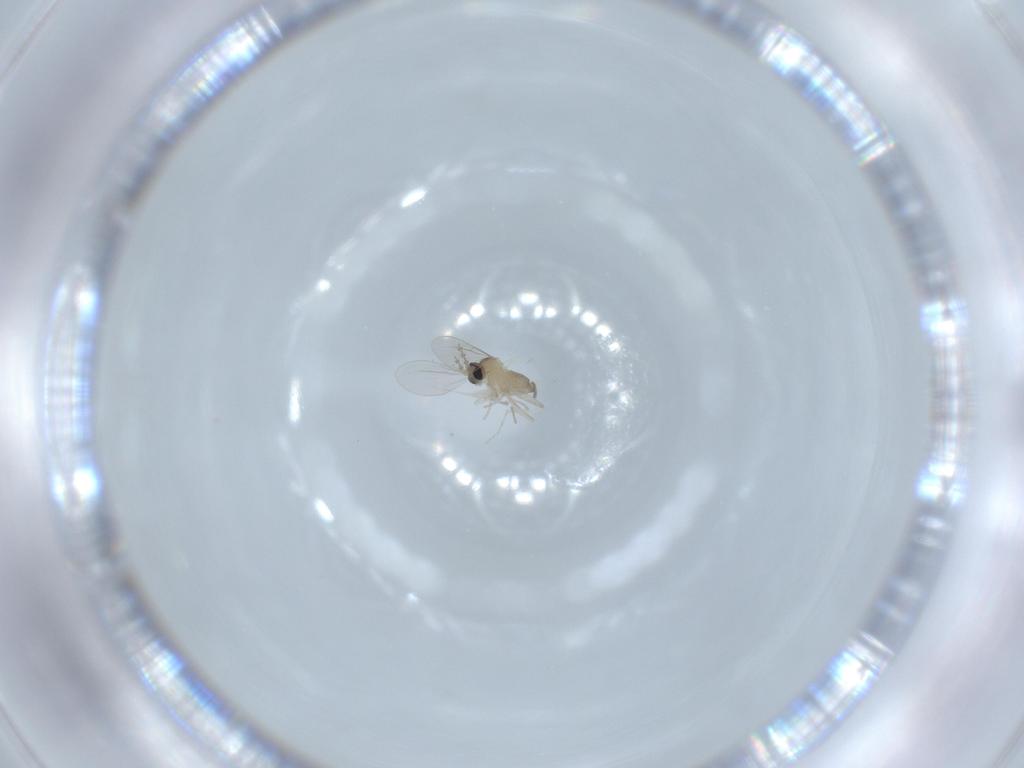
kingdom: Animalia
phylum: Arthropoda
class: Insecta
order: Diptera
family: Cecidomyiidae
